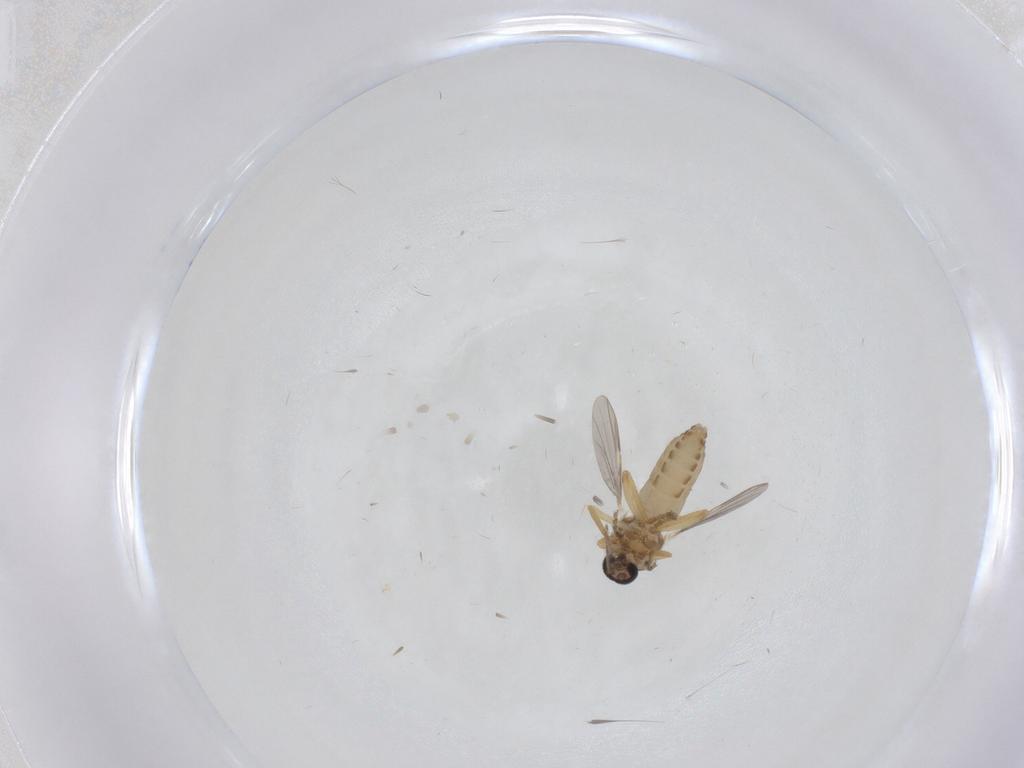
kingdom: Animalia
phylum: Arthropoda
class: Insecta
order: Diptera
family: Ceratopogonidae
